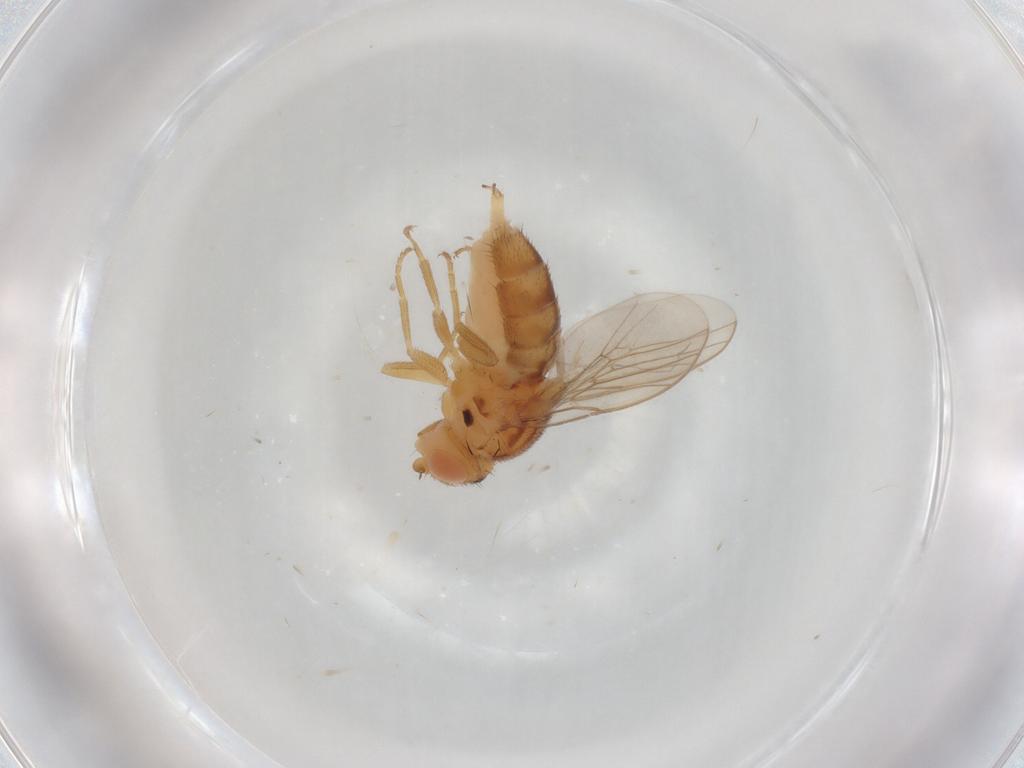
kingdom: Animalia
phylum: Arthropoda
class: Insecta
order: Diptera
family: Chloropidae
